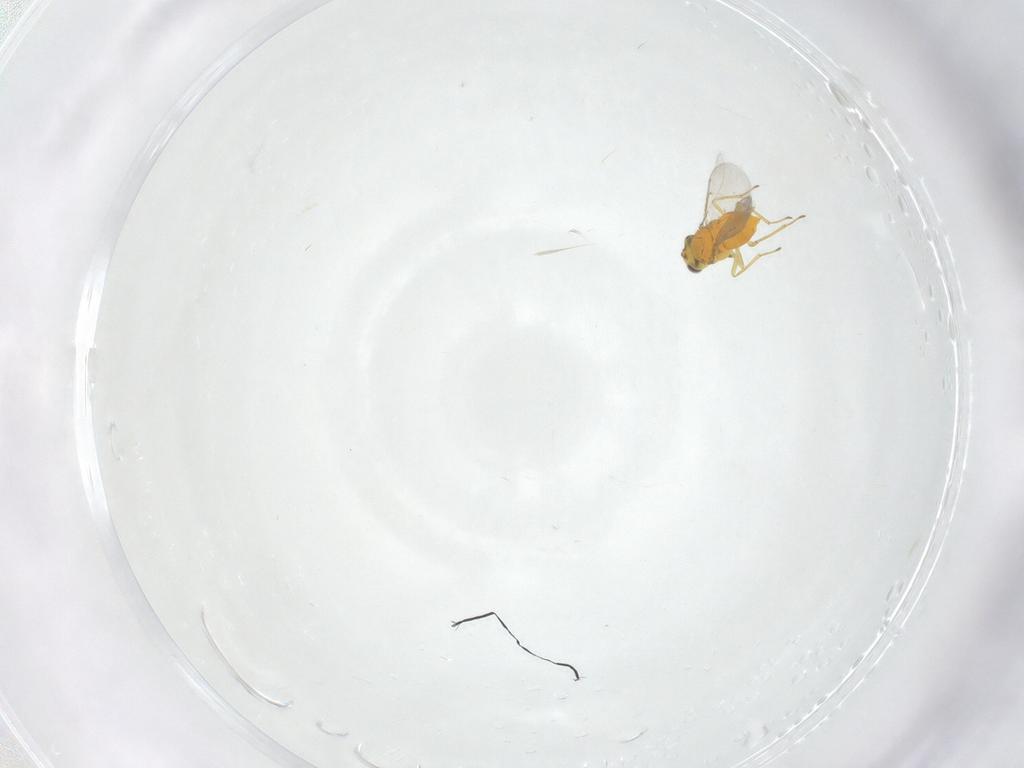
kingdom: Animalia
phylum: Arthropoda
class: Insecta
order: Hymenoptera
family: Aphelinidae
